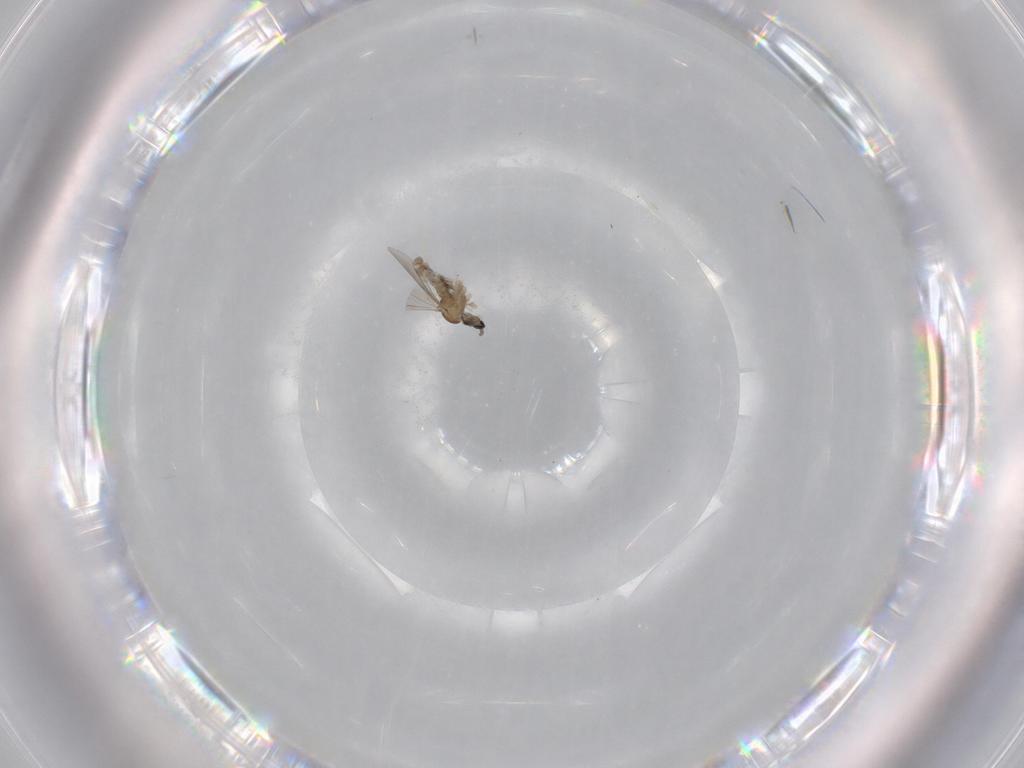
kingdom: Animalia
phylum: Arthropoda
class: Insecta
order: Diptera
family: Cecidomyiidae
